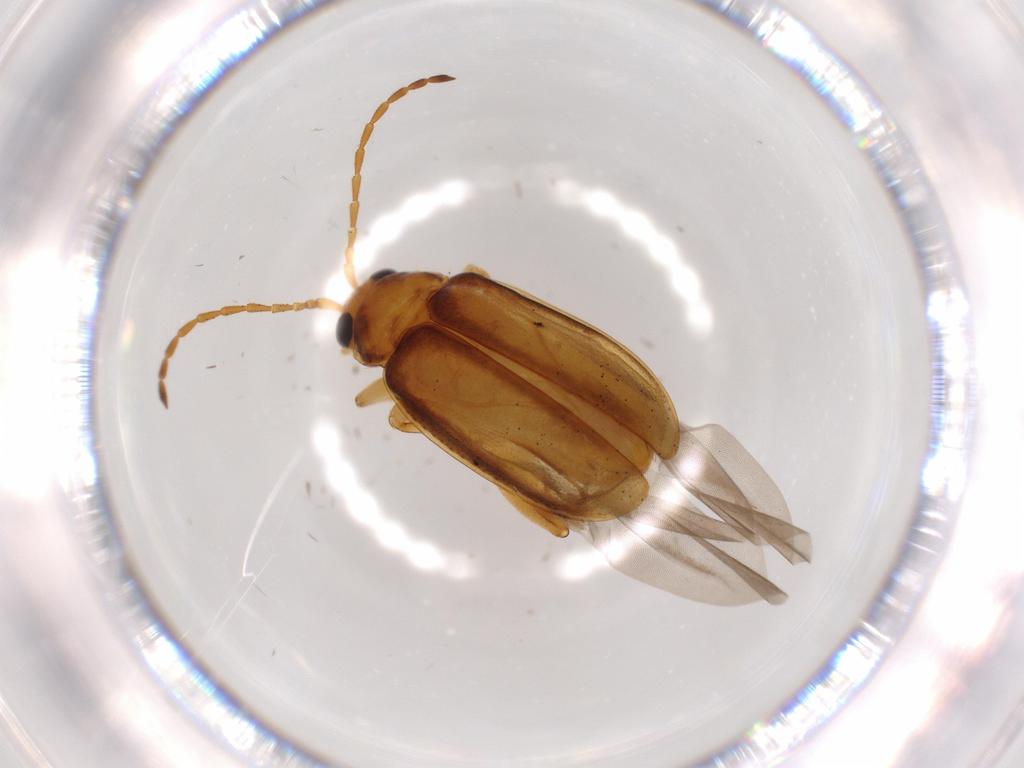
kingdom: Animalia
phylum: Arthropoda
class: Insecta
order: Coleoptera
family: Chrysomelidae
